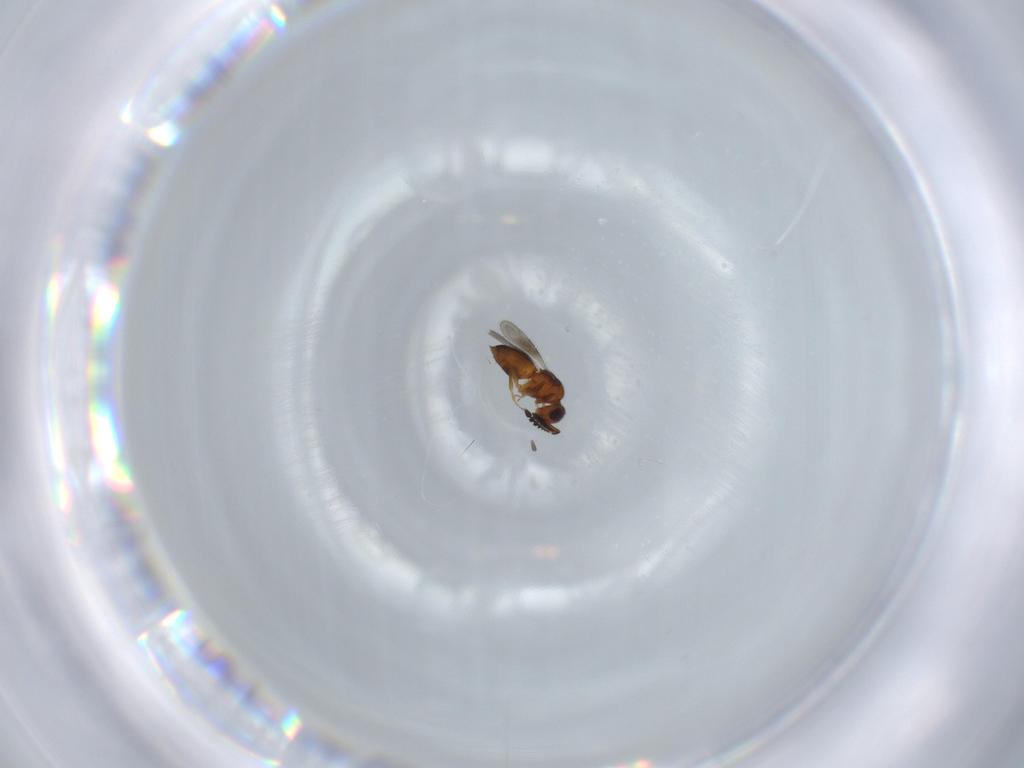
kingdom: Animalia
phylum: Arthropoda
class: Insecta
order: Hymenoptera
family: Ceraphronidae
